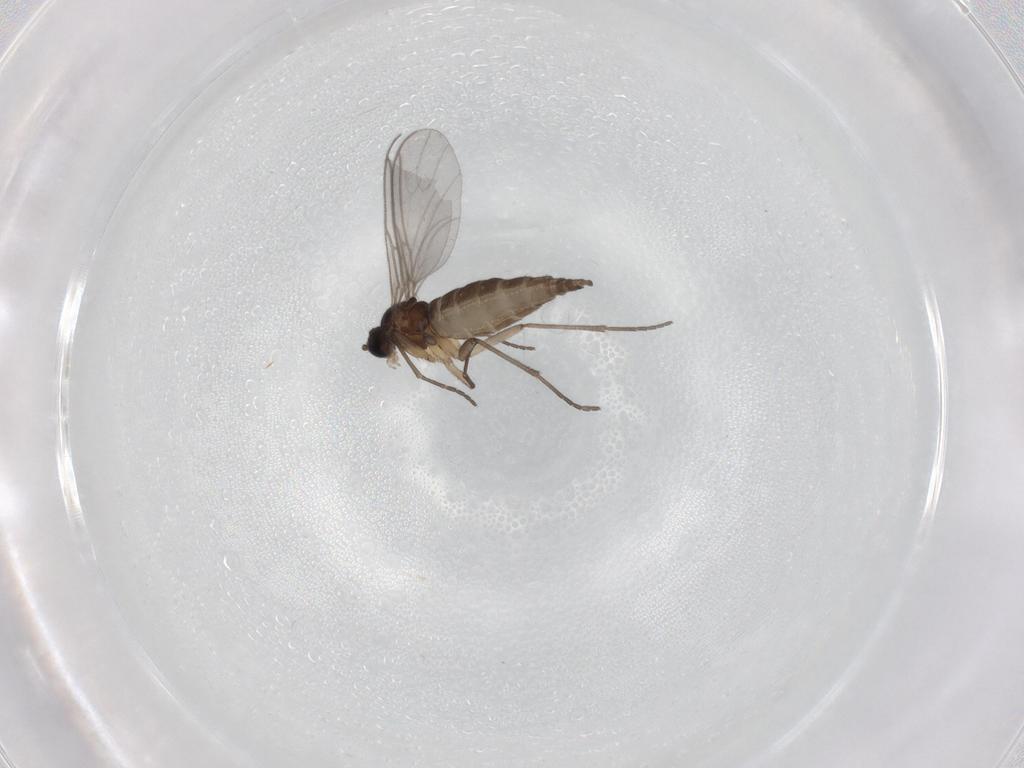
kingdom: Animalia
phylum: Arthropoda
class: Insecta
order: Diptera
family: Sciaridae
